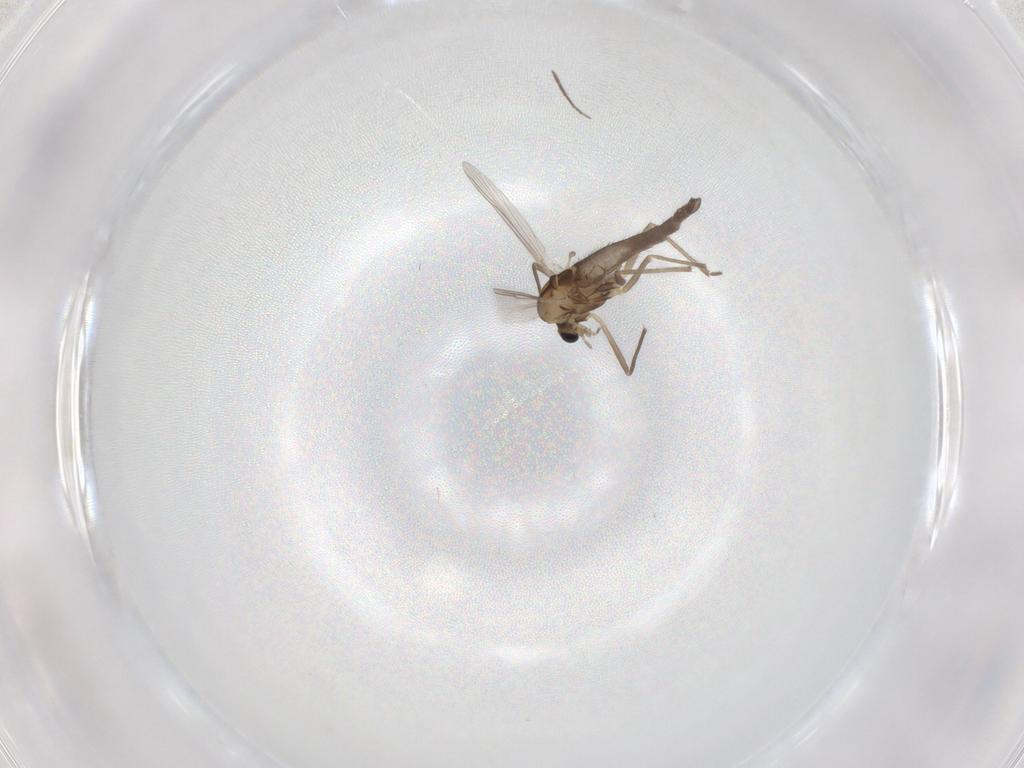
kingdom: Animalia
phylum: Arthropoda
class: Insecta
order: Diptera
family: Chironomidae
